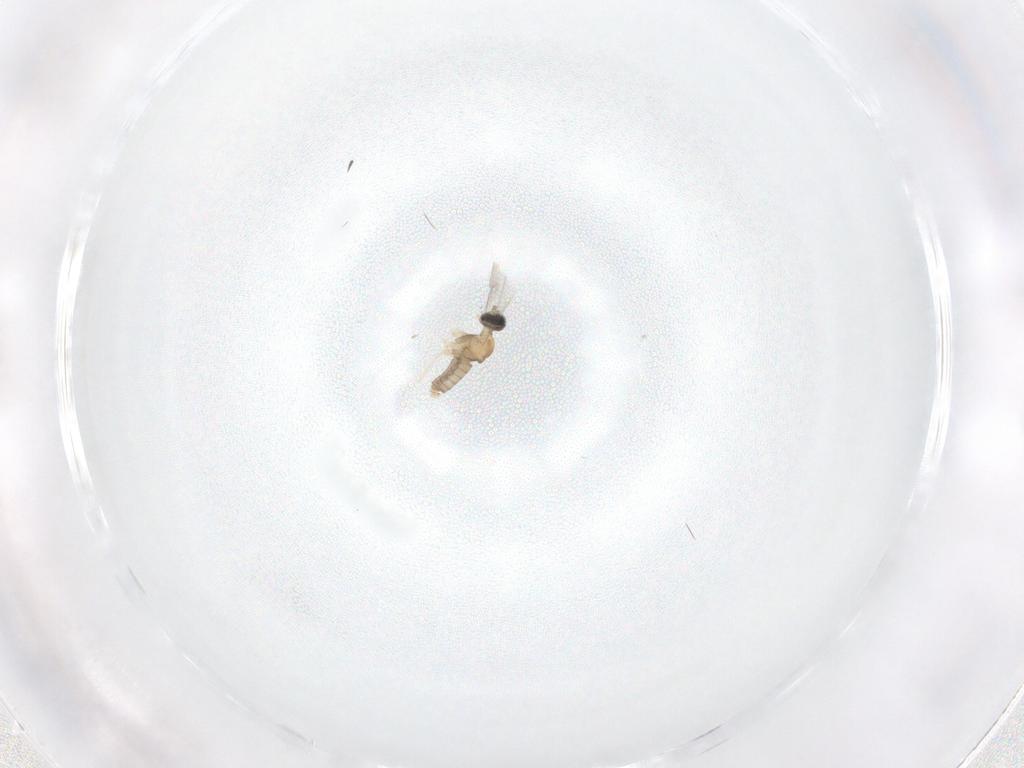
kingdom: Animalia
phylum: Arthropoda
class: Insecta
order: Diptera
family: Cecidomyiidae
